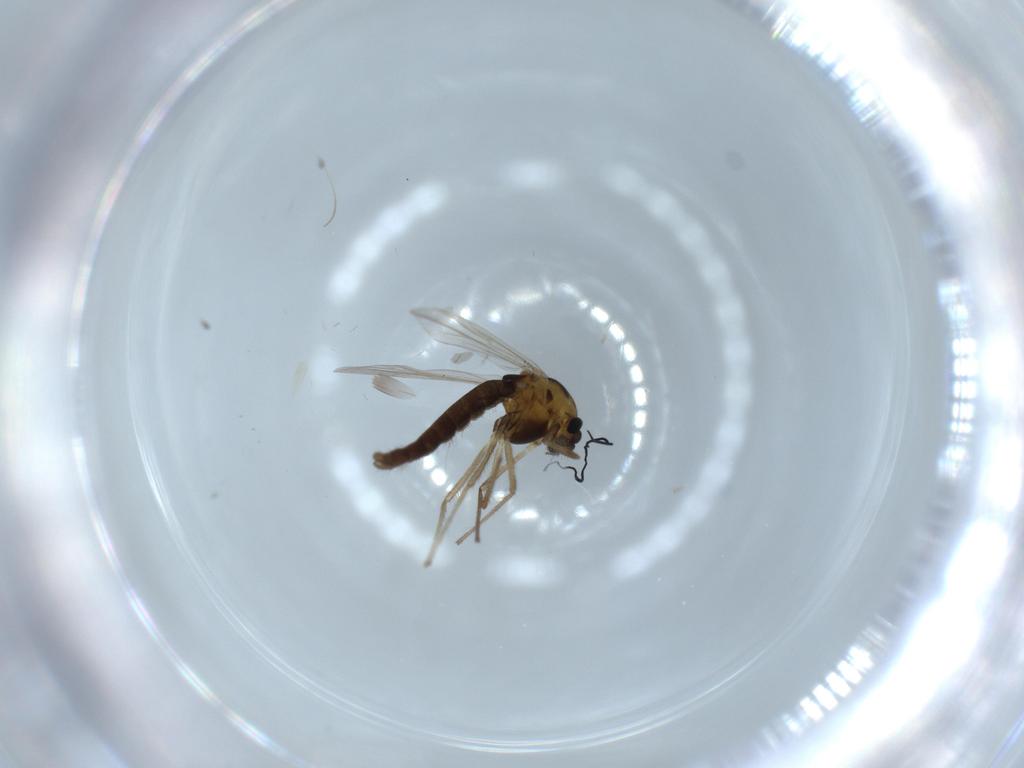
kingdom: Animalia
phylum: Arthropoda
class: Insecta
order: Diptera
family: Chironomidae
